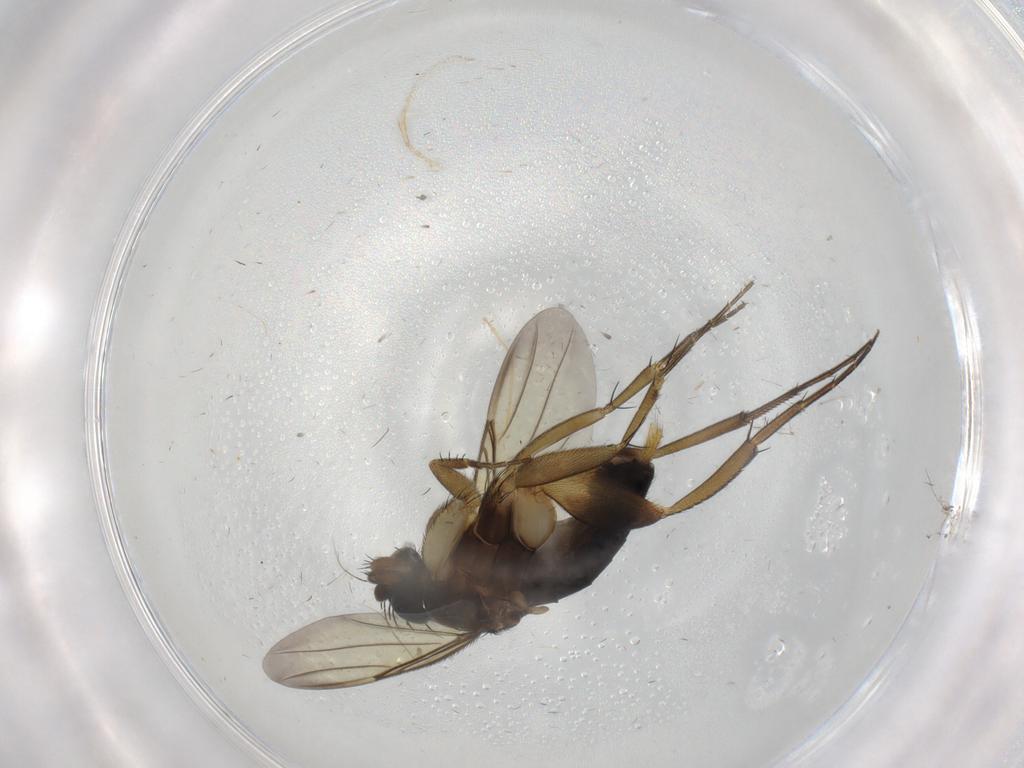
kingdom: Animalia
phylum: Arthropoda
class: Insecta
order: Diptera
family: Phoridae
